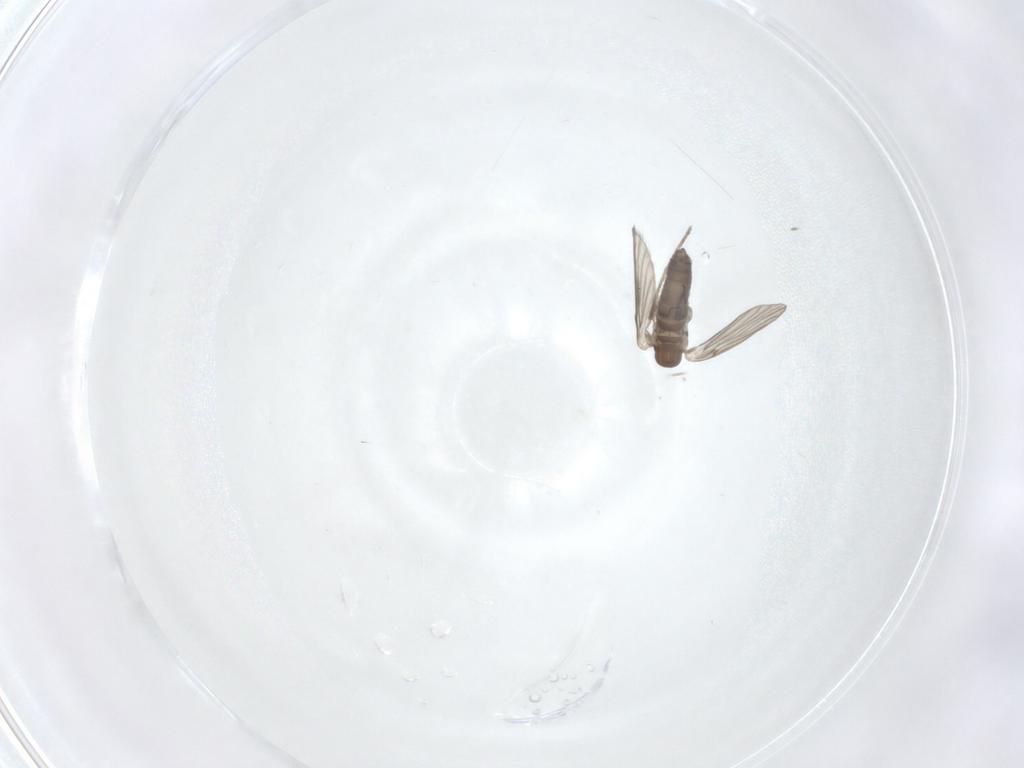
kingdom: Animalia
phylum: Arthropoda
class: Insecta
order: Diptera
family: Phoridae
